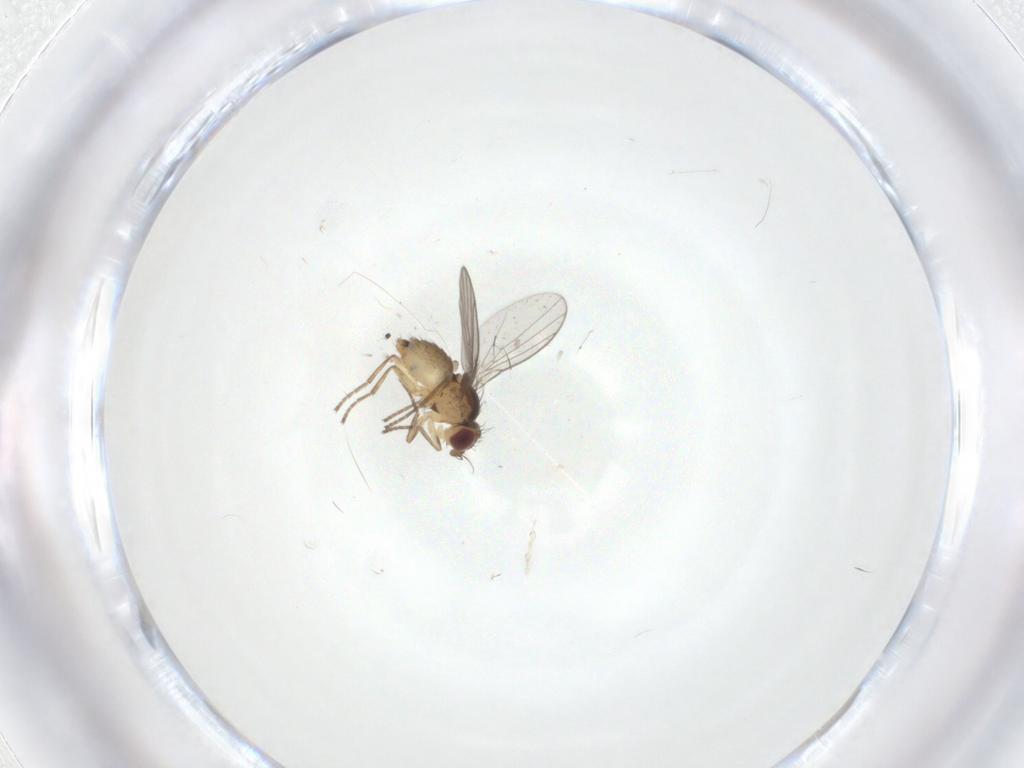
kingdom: Animalia
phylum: Arthropoda
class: Insecta
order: Diptera
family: Agromyzidae
